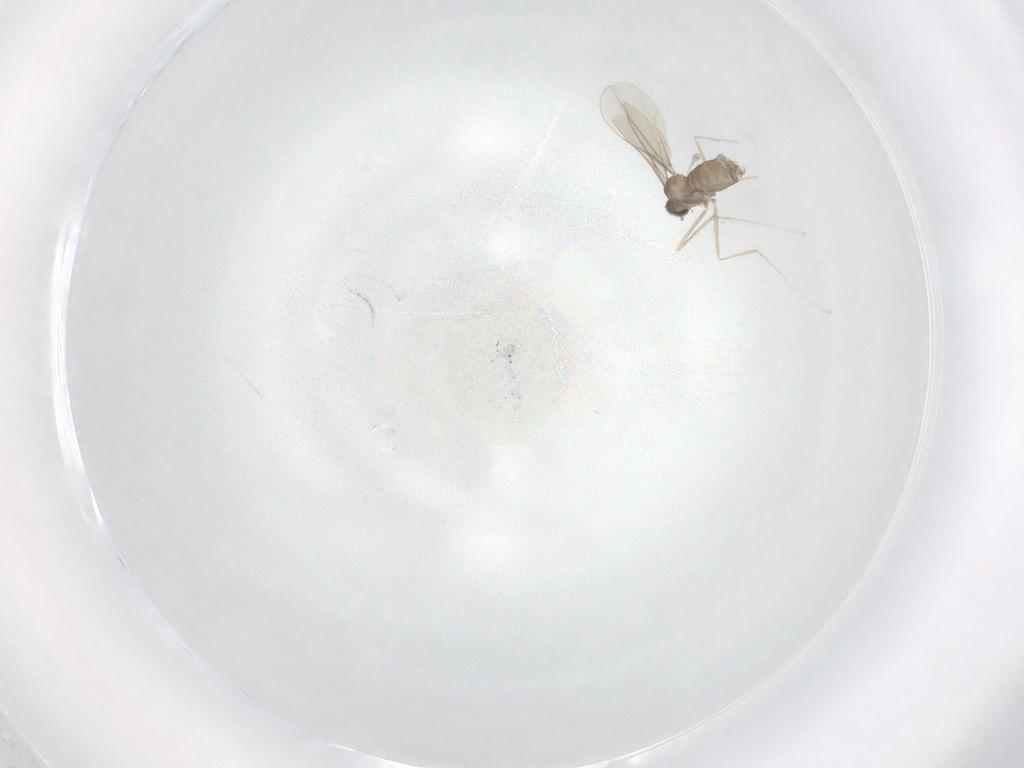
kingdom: Animalia
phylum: Arthropoda
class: Insecta
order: Diptera
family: Cecidomyiidae
